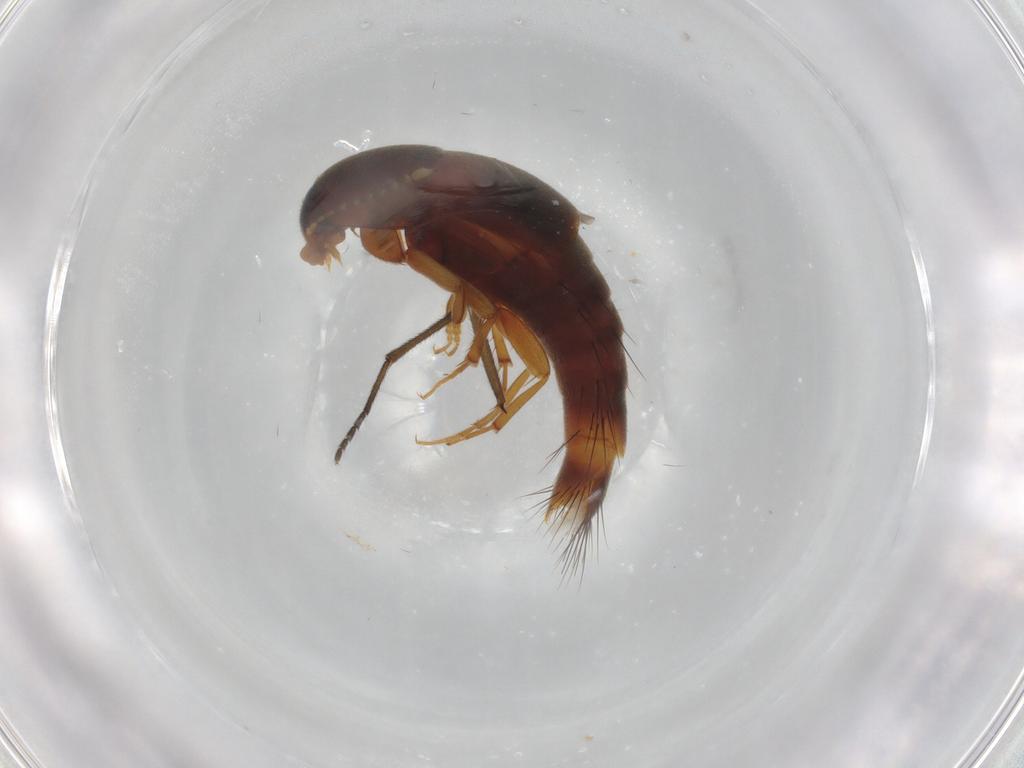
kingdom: Animalia
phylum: Arthropoda
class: Insecta
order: Coleoptera
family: Staphylinidae
